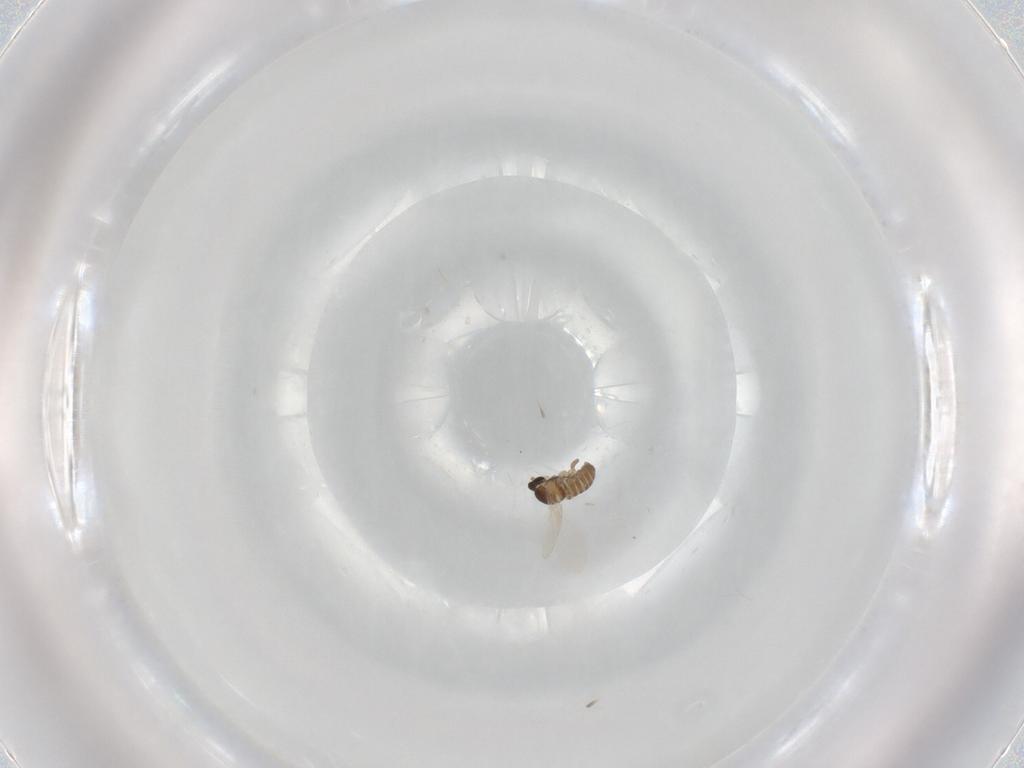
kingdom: Animalia
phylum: Arthropoda
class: Insecta
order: Diptera
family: Cecidomyiidae
